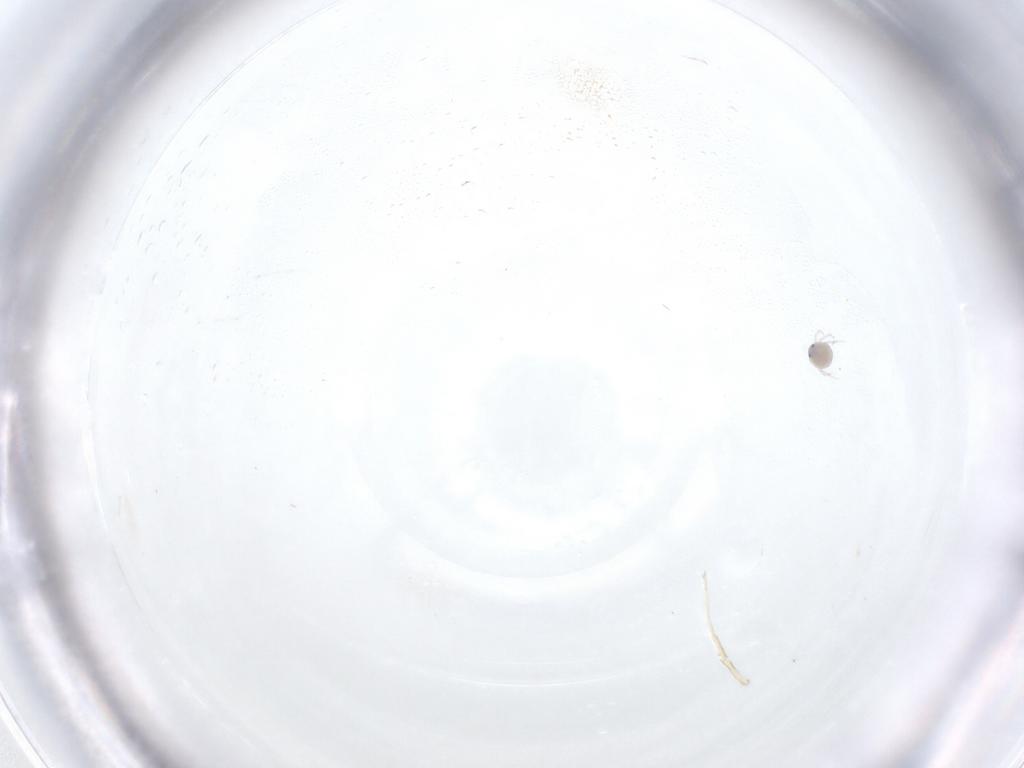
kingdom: Animalia
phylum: Arthropoda
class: Arachnida
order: Trombidiformes
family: Pionidae
